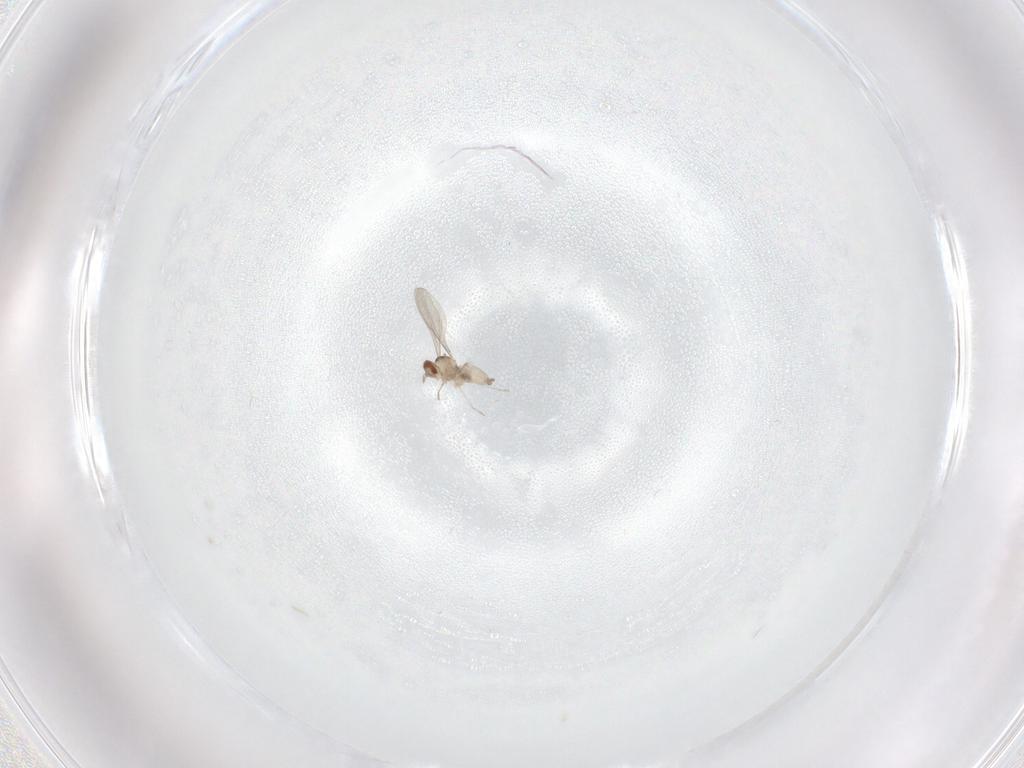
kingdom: Animalia
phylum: Arthropoda
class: Insecta
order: Diptera
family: Cecidomyiidae
